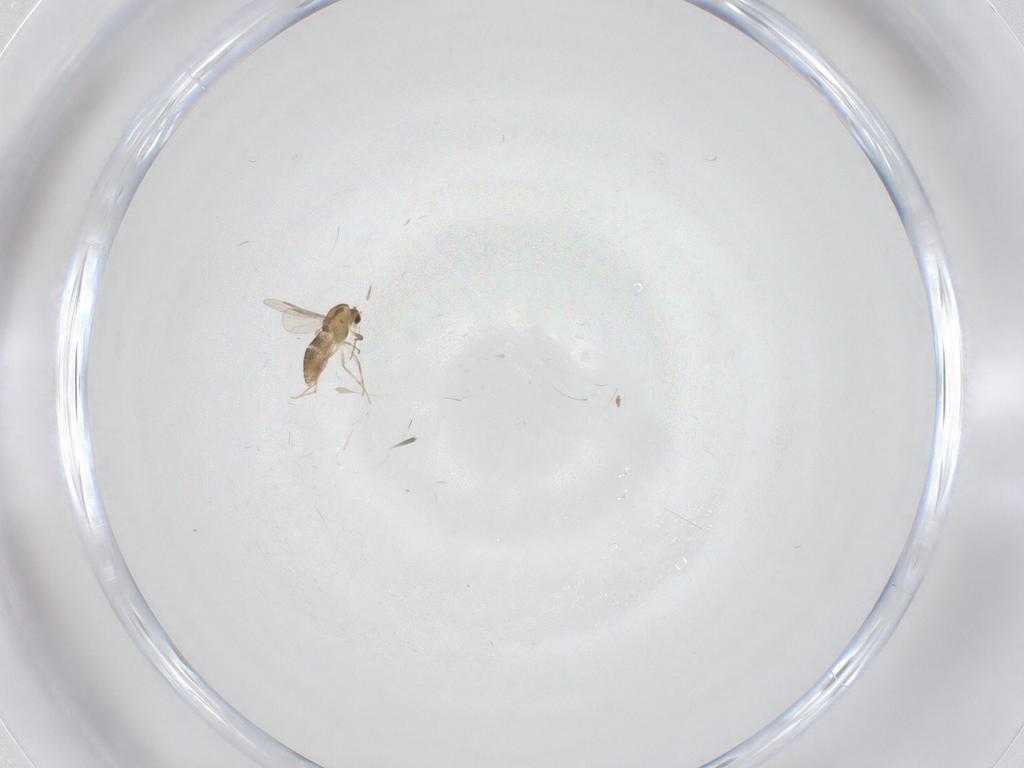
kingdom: Animalia
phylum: Arthropoda
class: Insecta
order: Diptera
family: Chironomidae
